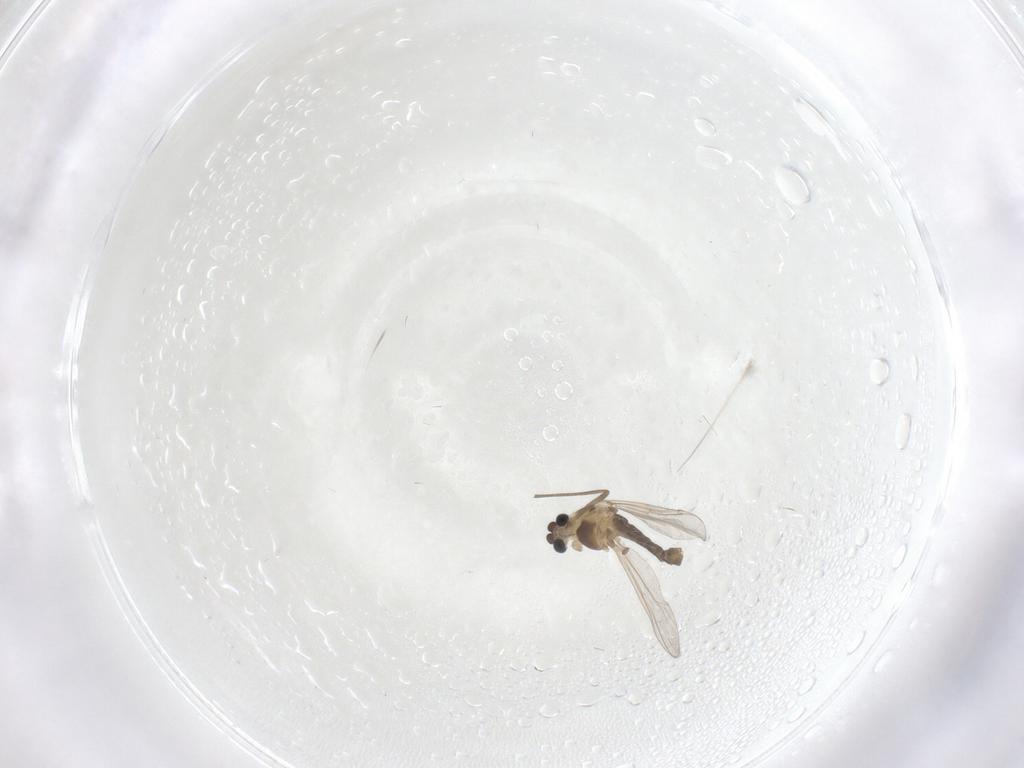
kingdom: Animalia
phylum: Arthropoda
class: Insecta
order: Diptera
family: Chironomidae
